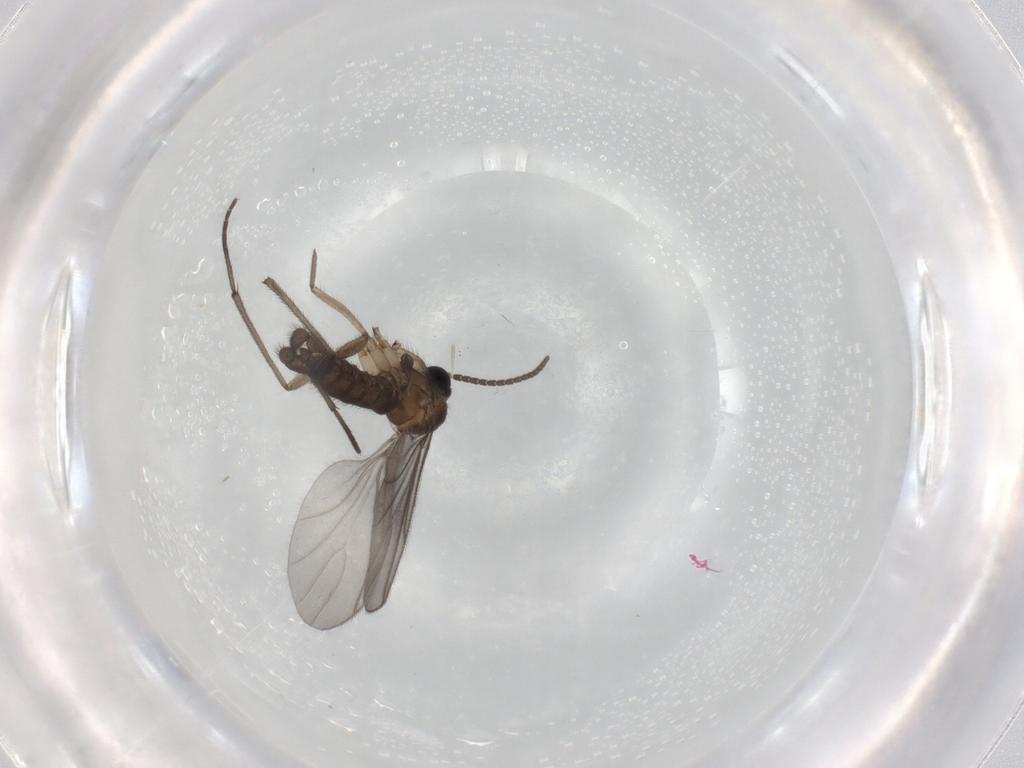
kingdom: Animalia
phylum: Arthropoda
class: Insecta
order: Diptera
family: Sciaridae
